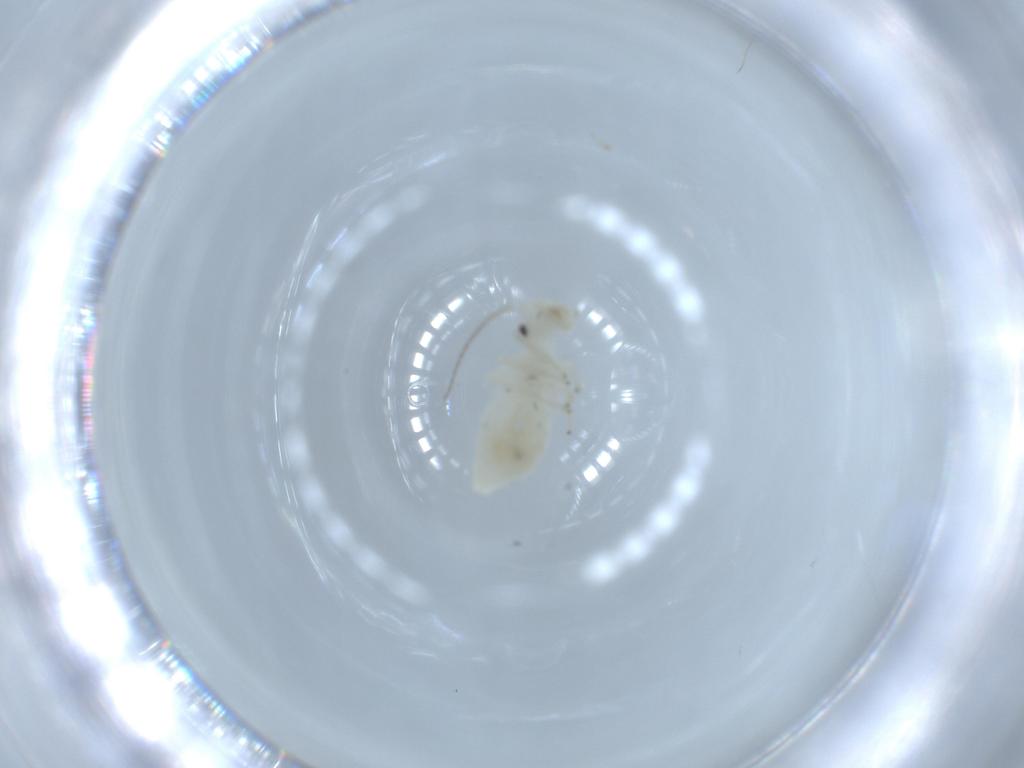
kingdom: Animalia
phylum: Arthropoda
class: Insecta
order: Psocodea
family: Caeciliusidae
